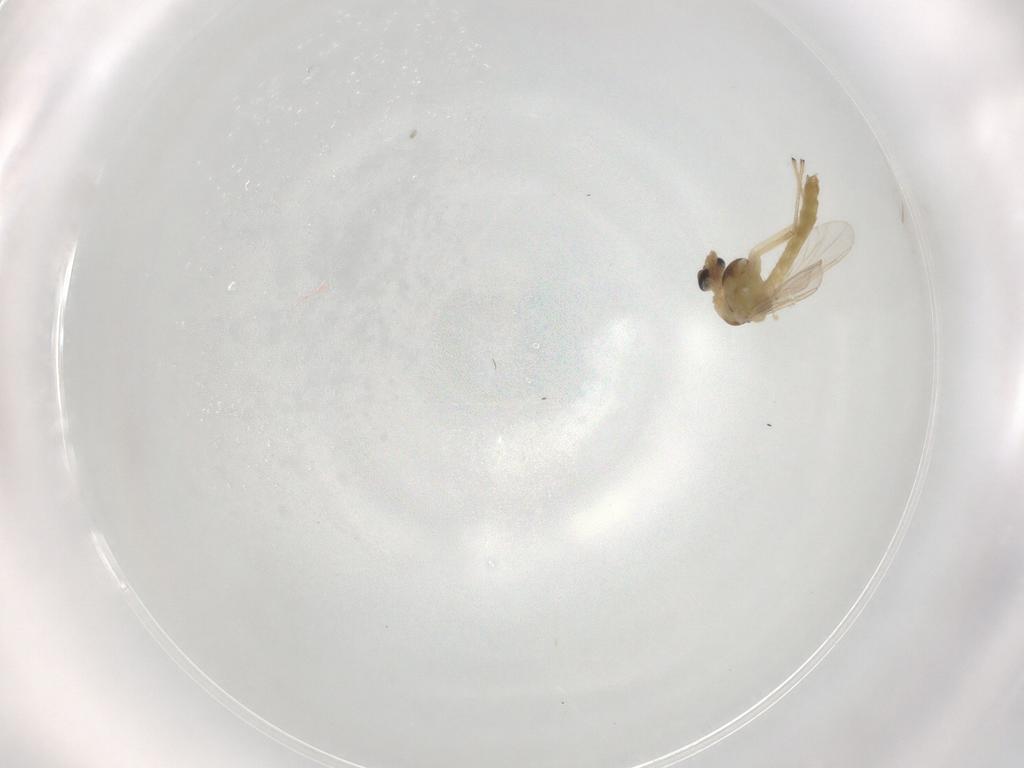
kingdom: Animalia
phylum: Arthropoda
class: Insecta
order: Diptera
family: Chironomidae
